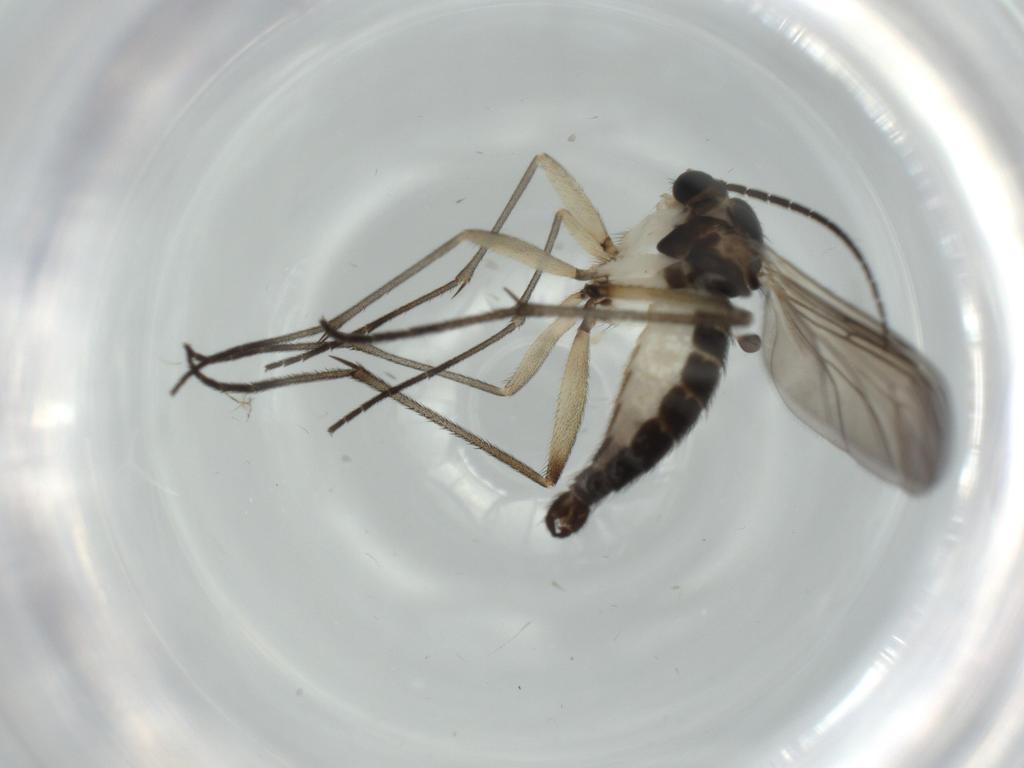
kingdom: Animalia
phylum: Arthropoda
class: Insecta
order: Diptera
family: Sciaridae
